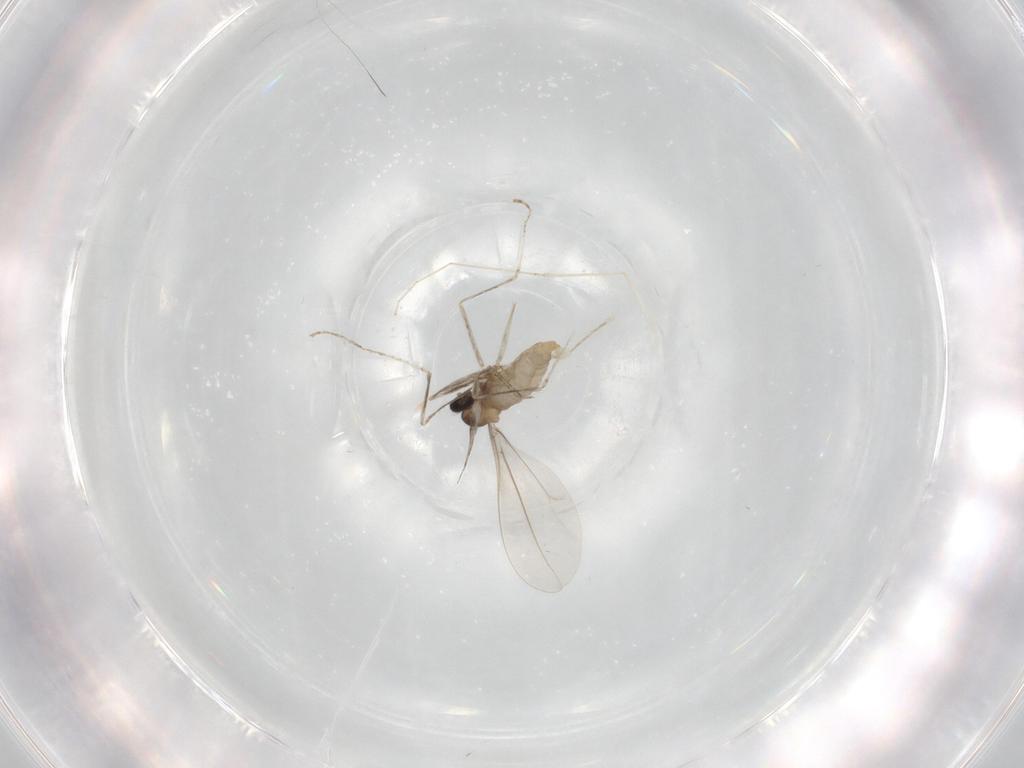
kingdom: Animalia
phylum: Arthropoda
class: Insecta
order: Diptera
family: Cecidomyiidae
